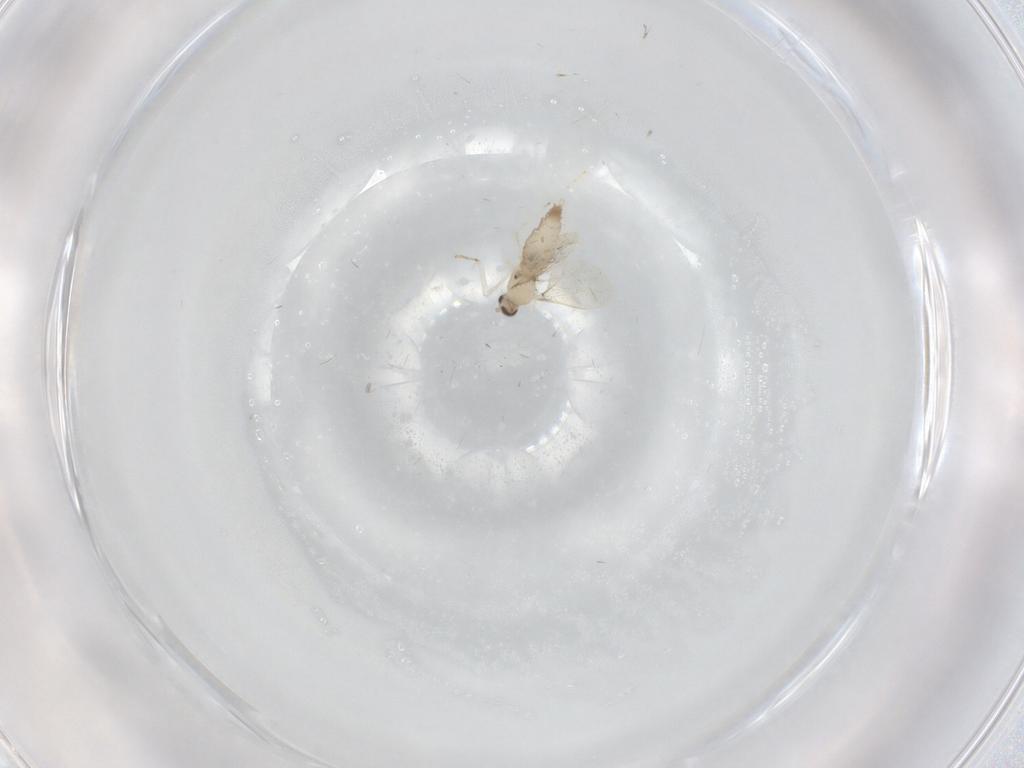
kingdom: Animalia
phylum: Arthropoda
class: Insecta
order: Diptera
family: Cecidomyiidae
